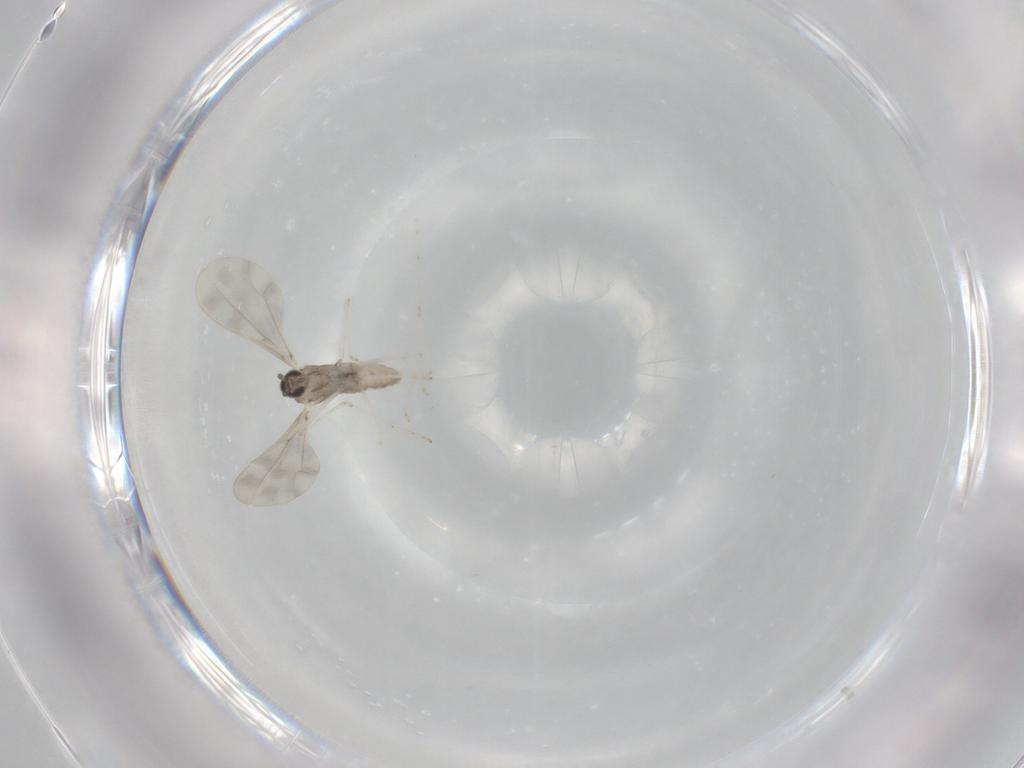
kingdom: Animalia
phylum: Arthropoda
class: Insecta
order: Diptera
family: Cecidomyiidae
